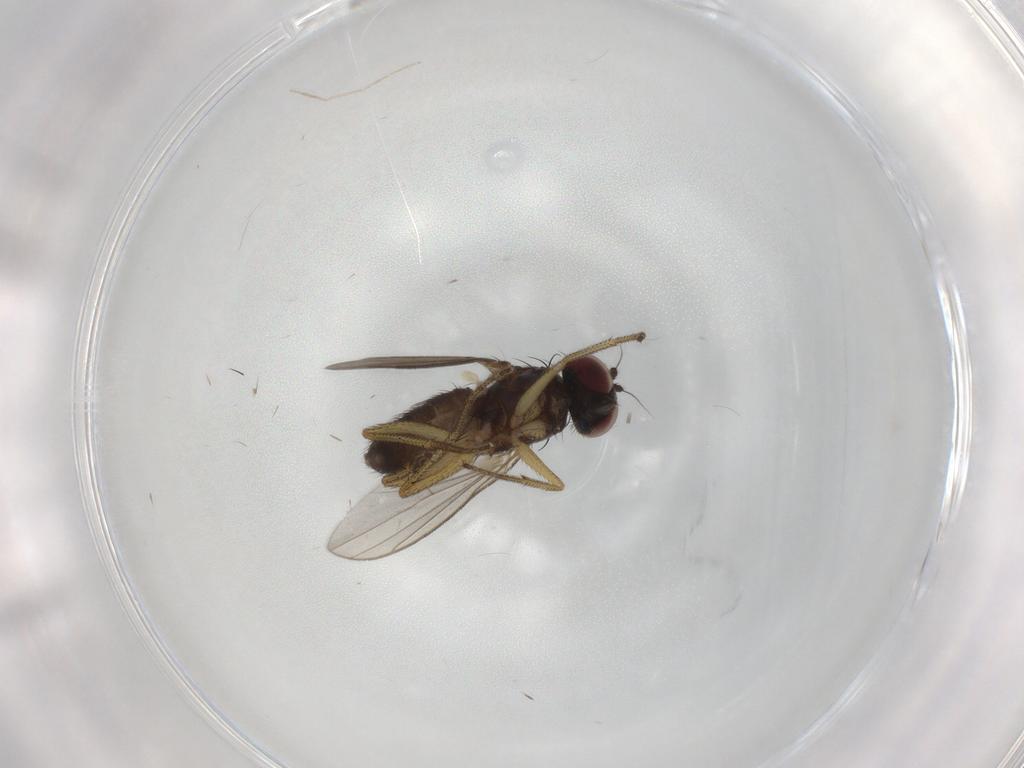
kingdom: Animalia
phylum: Arthropoda
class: Insecta
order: Diptera
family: Chironomidae
